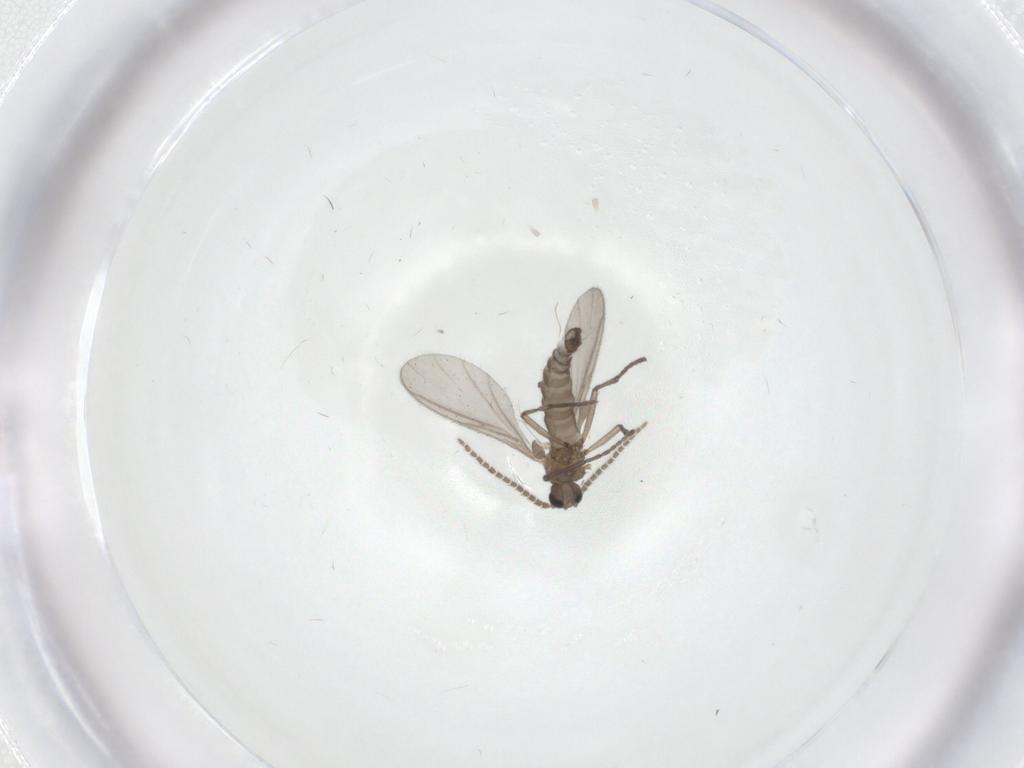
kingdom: Animalia
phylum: Arthropoda
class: Insecta
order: Diptera
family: Sciaridae
